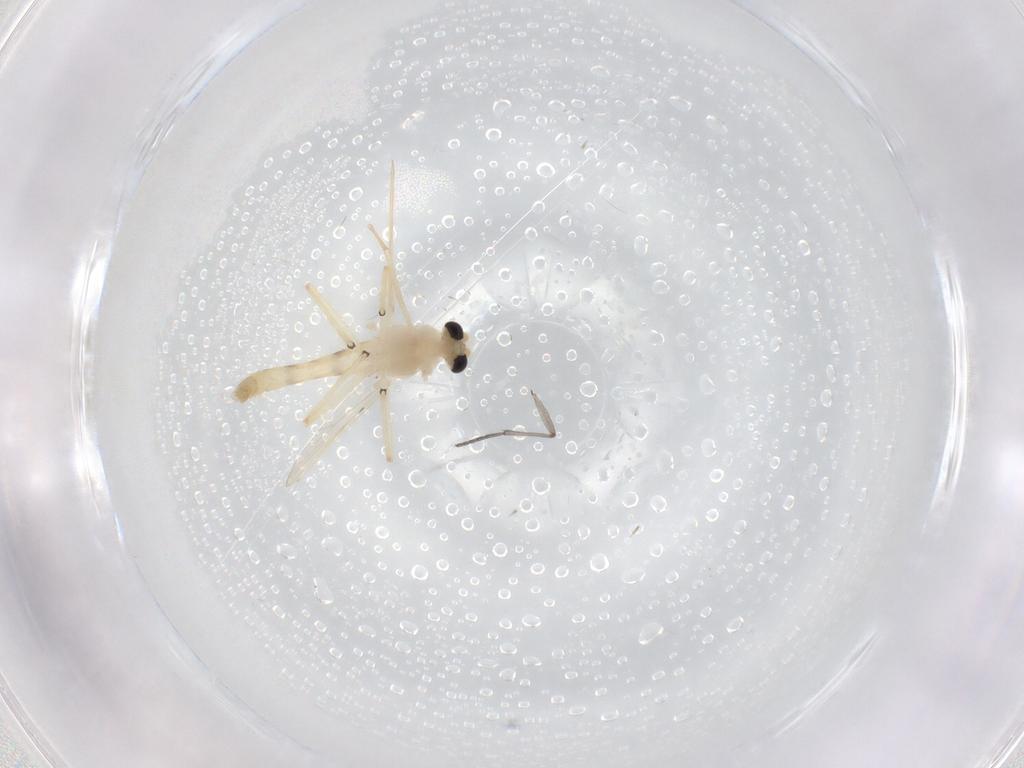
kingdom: Animalia
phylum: Arthropoda
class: Insecta
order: Diptera
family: Chironomidae
